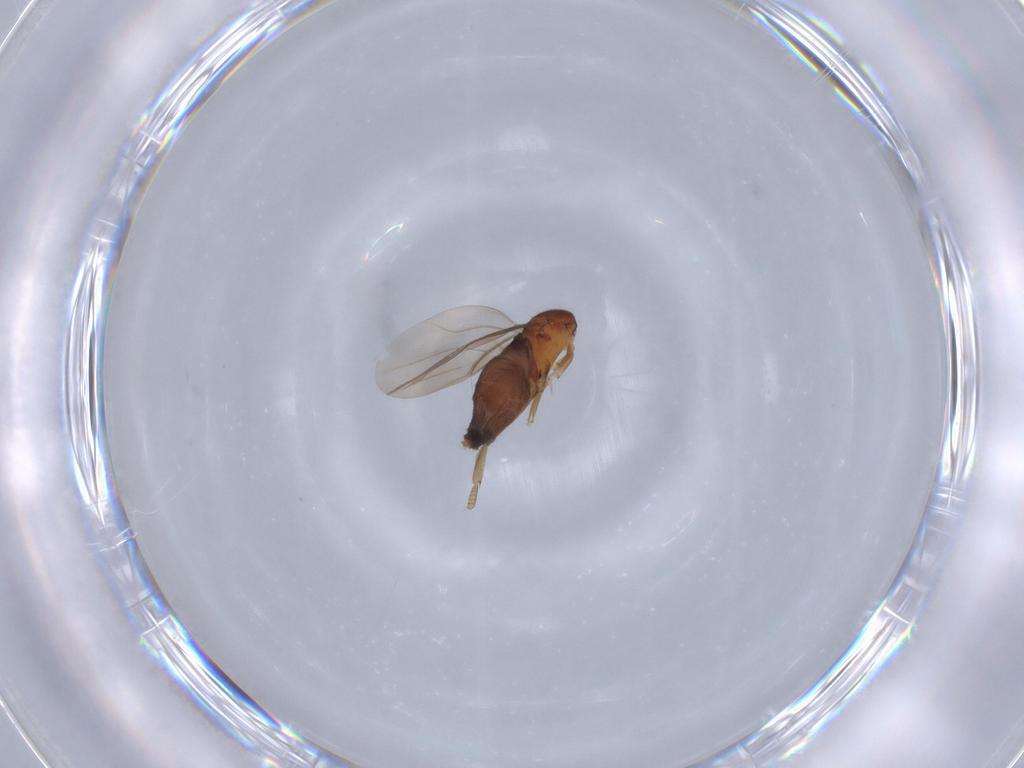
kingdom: Animalia
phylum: Arthropoda
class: Insecta
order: Diptera
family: Phoridae
